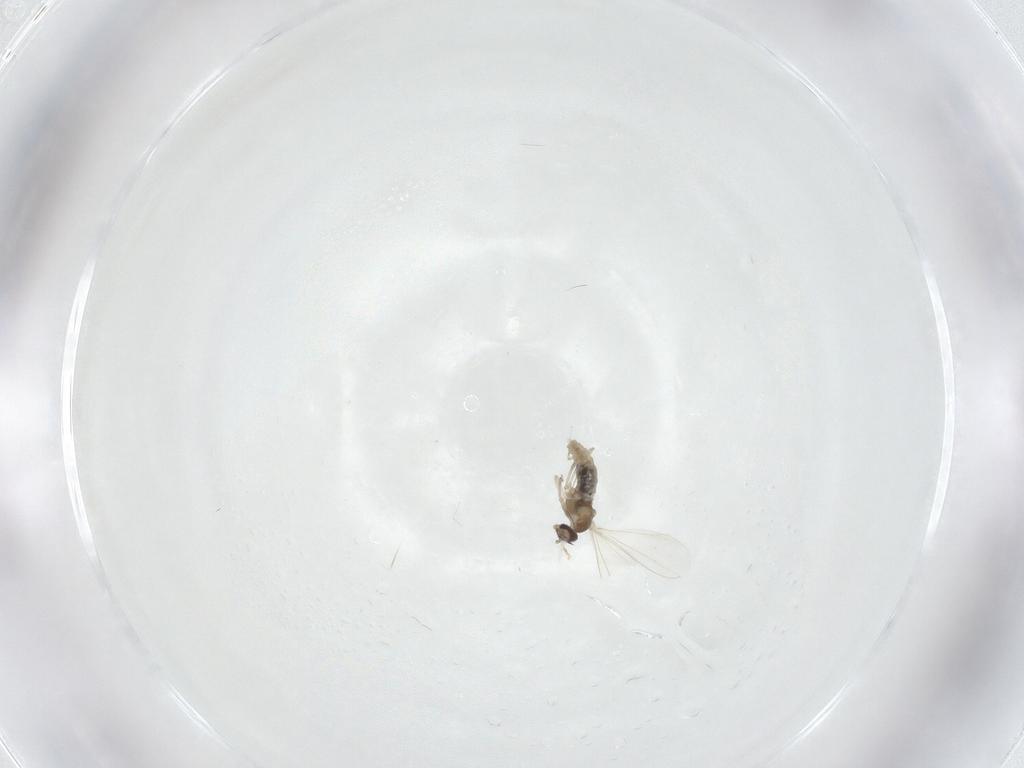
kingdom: Animalia
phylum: Arthropoda
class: Insecta
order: Diptera
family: Cecidomyiidae
